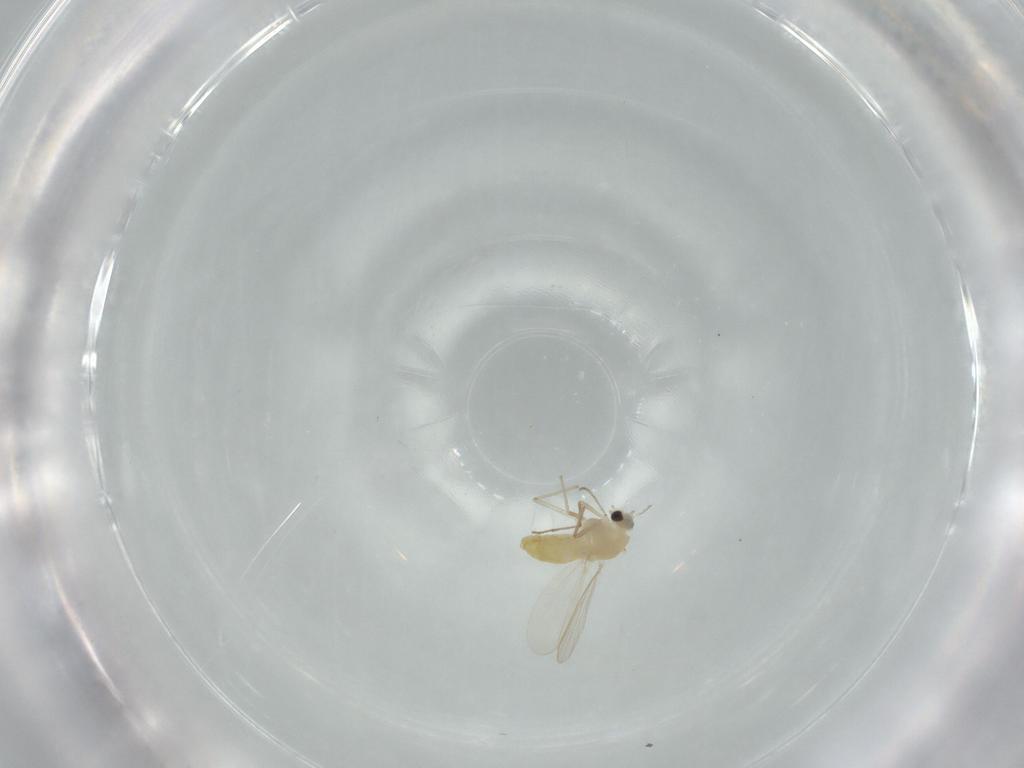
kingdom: Animalia
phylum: Arthropoda
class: Insecta
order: Diptera
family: Chironomidae
